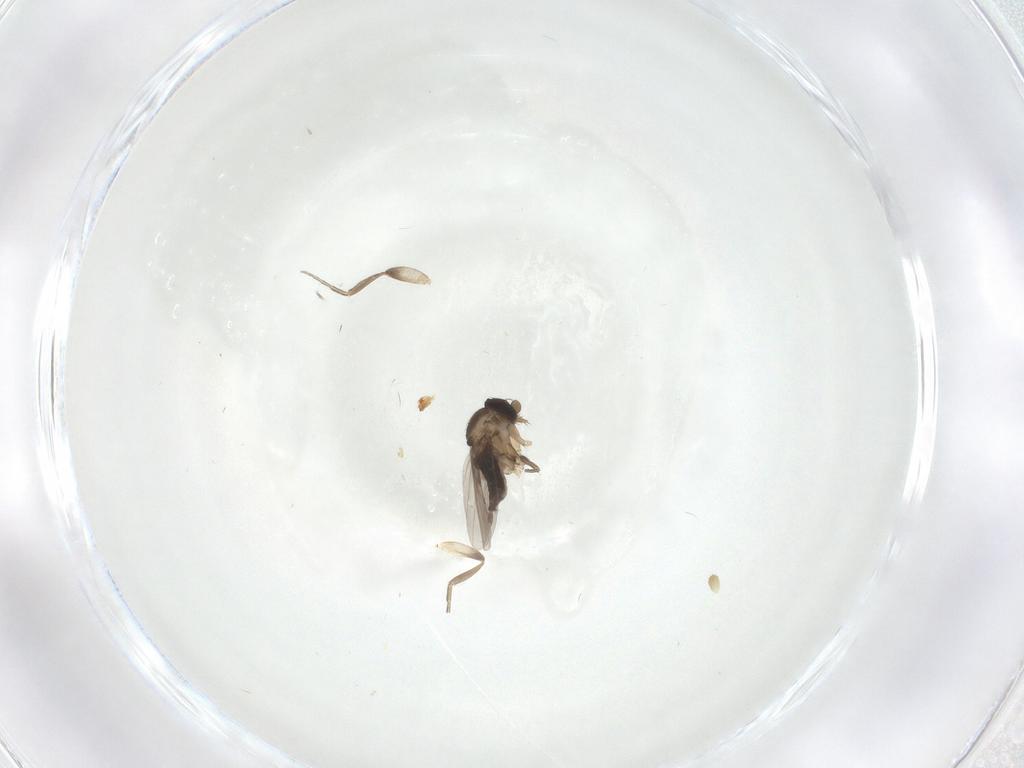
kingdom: Animalia
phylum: Arthropoda
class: Insecta
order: Diptera
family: Phoridae
